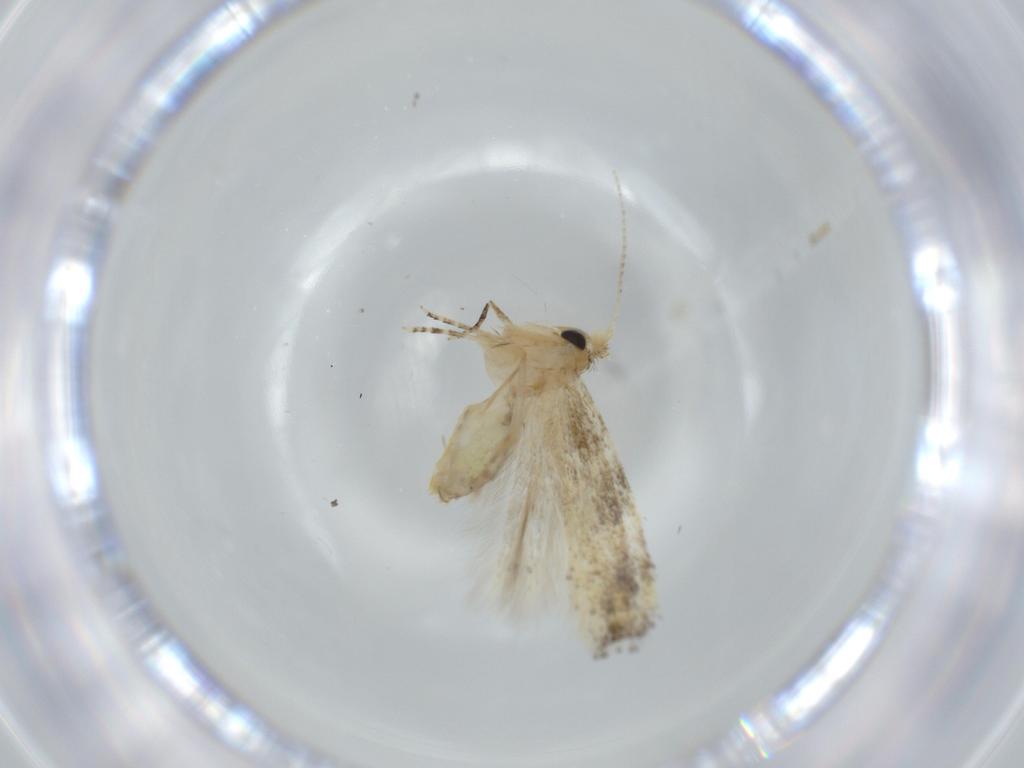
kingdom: Animalia
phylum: Arthropoda
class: Insecta
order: Lepidoptera
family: Bucculatricidae
